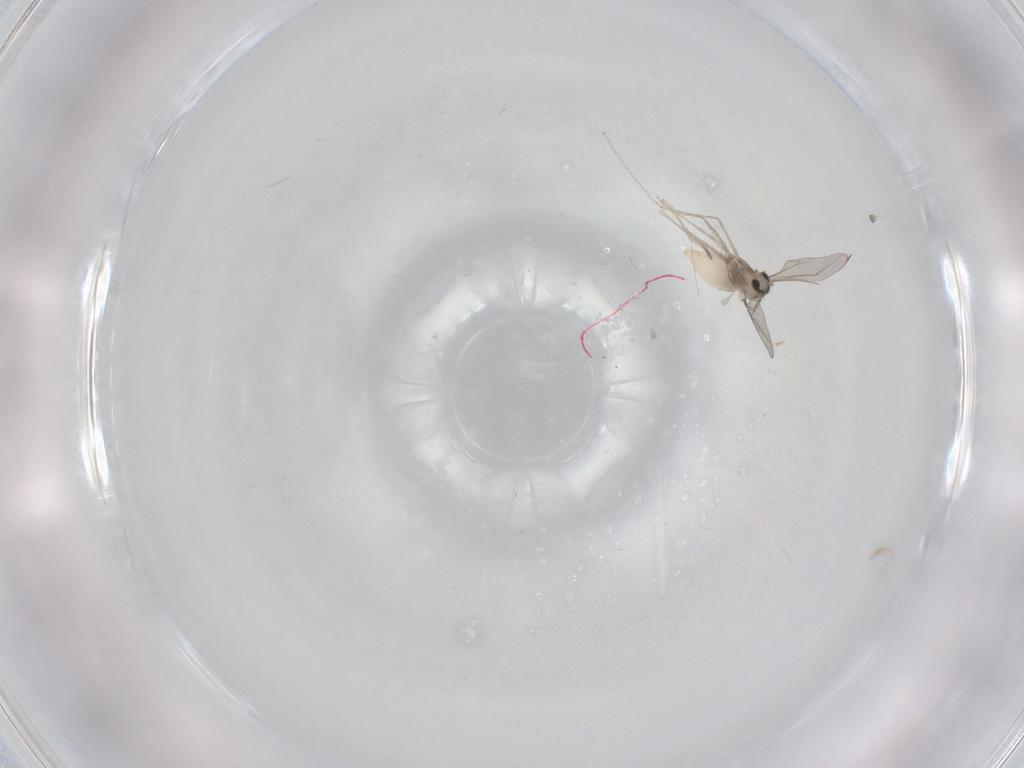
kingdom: Animalia
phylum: Arthropoda
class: Insecta
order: Diptera
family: Cecidomyiidae
